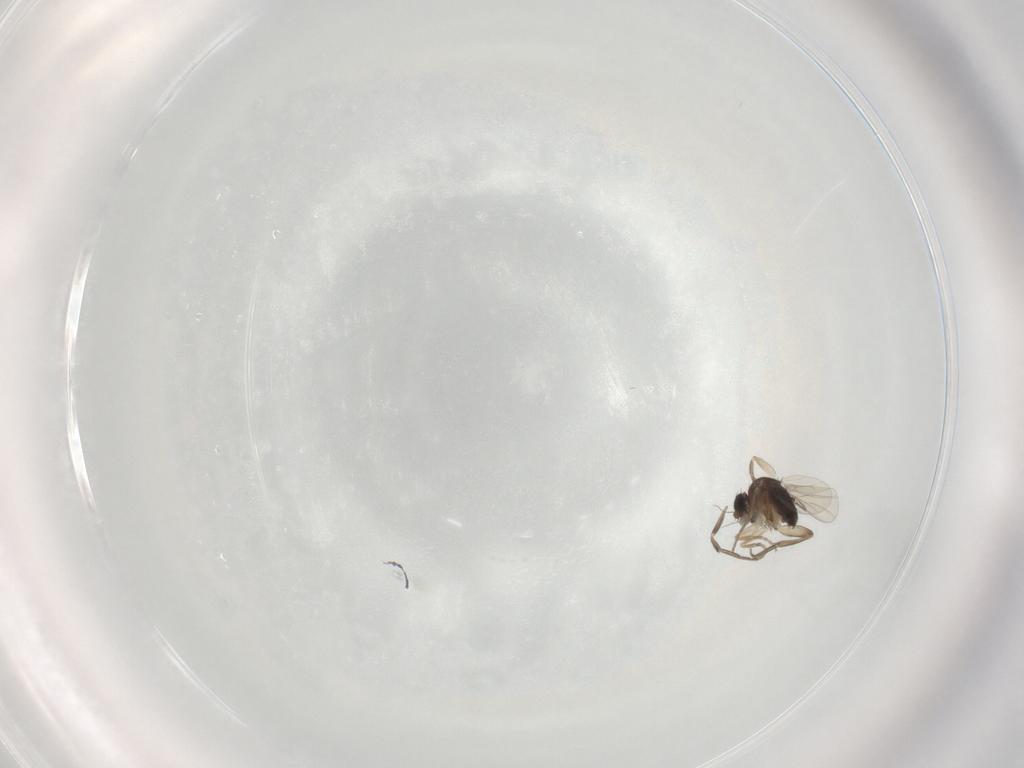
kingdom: Animalia
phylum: Arthropoda
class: Insecta
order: Diptera
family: Phoridae
